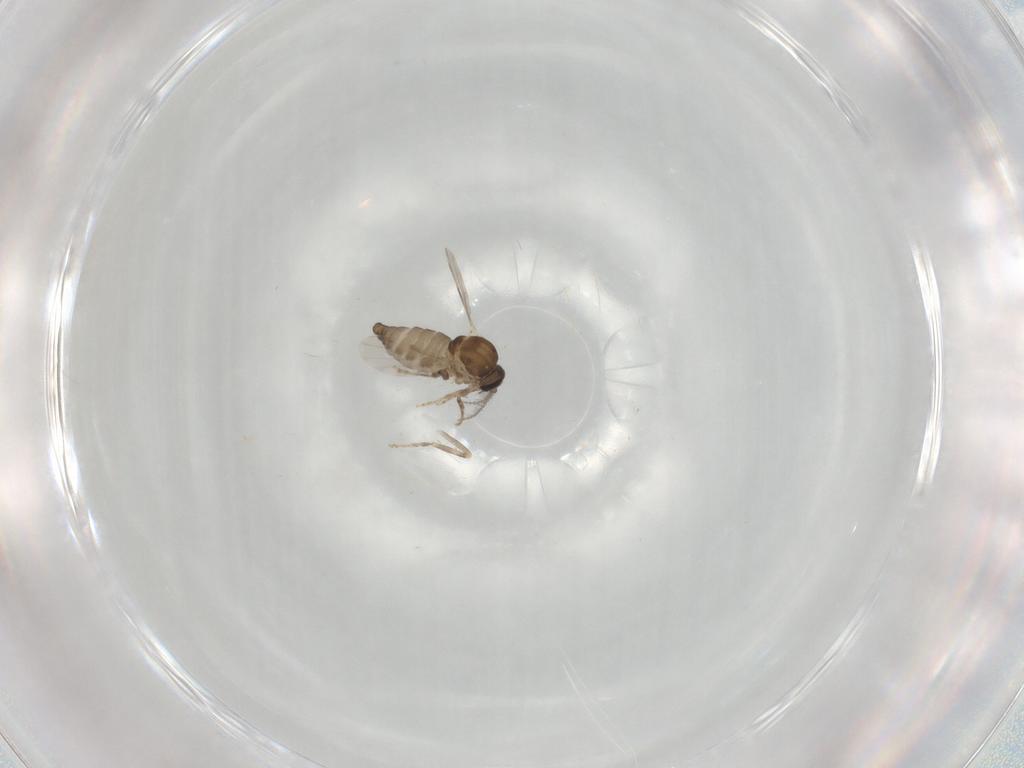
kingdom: Animalia
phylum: Arthropoda
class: Insecta
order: Diptera
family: Ceratopogonidae
